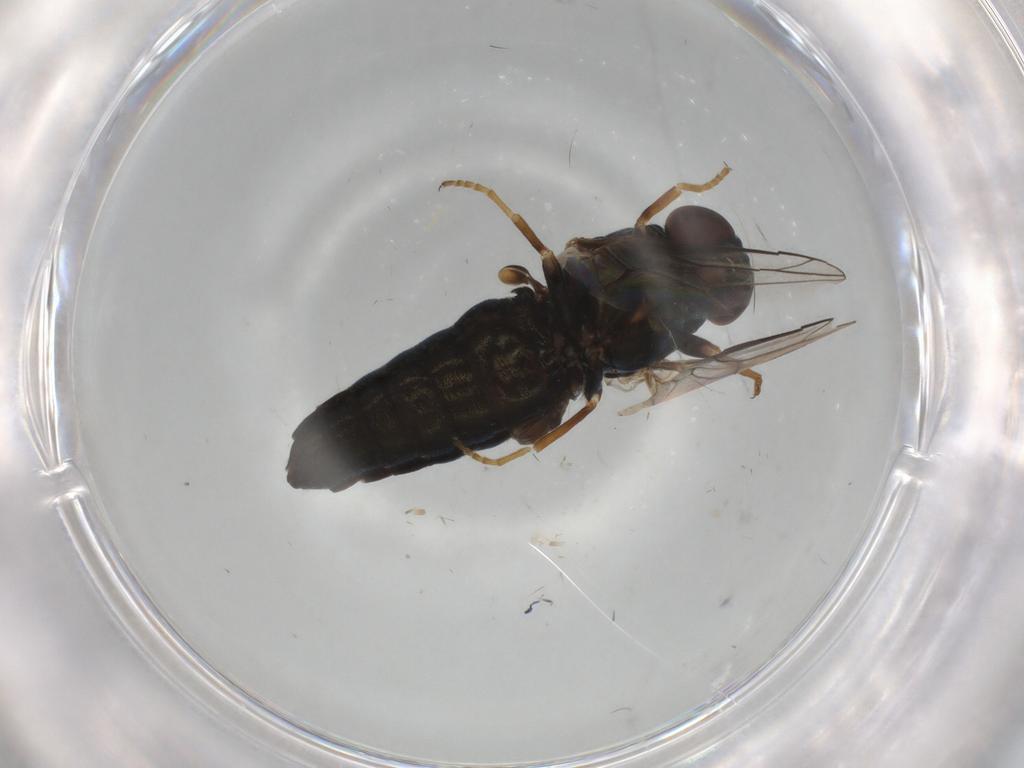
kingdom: Animalia
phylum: Arthropoda
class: Insecta
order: Diptera
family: Scenopinidae
